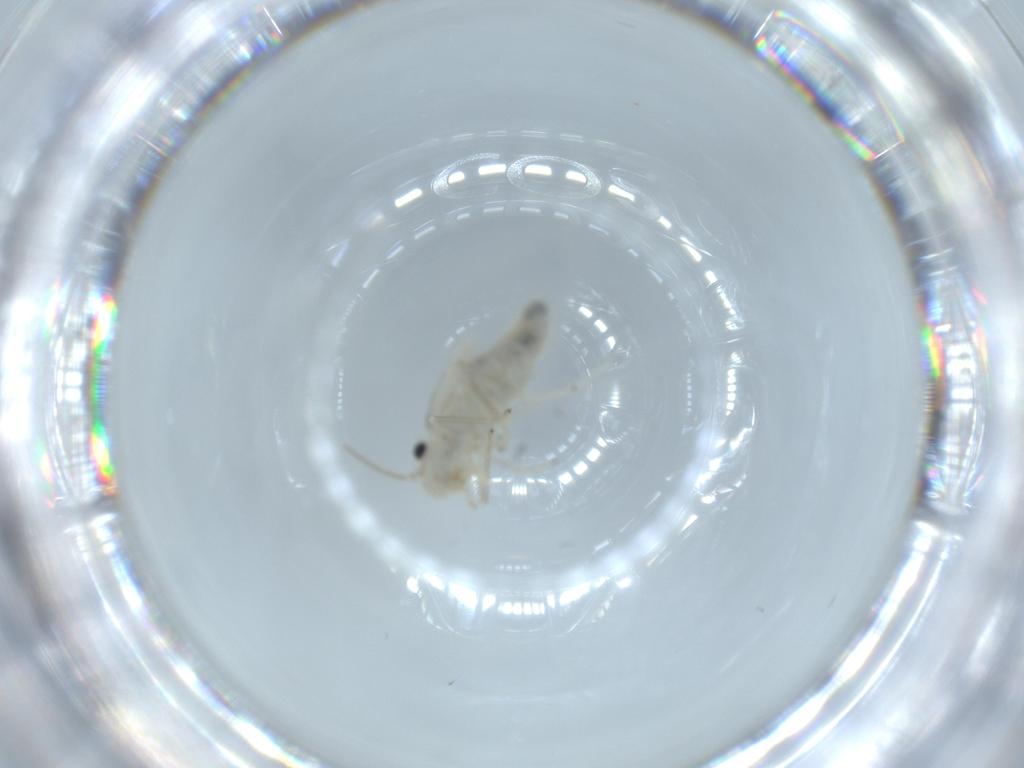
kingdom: Animalia
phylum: Arthropoda
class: Insecta
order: Psocodea
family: Caeciliusidae
